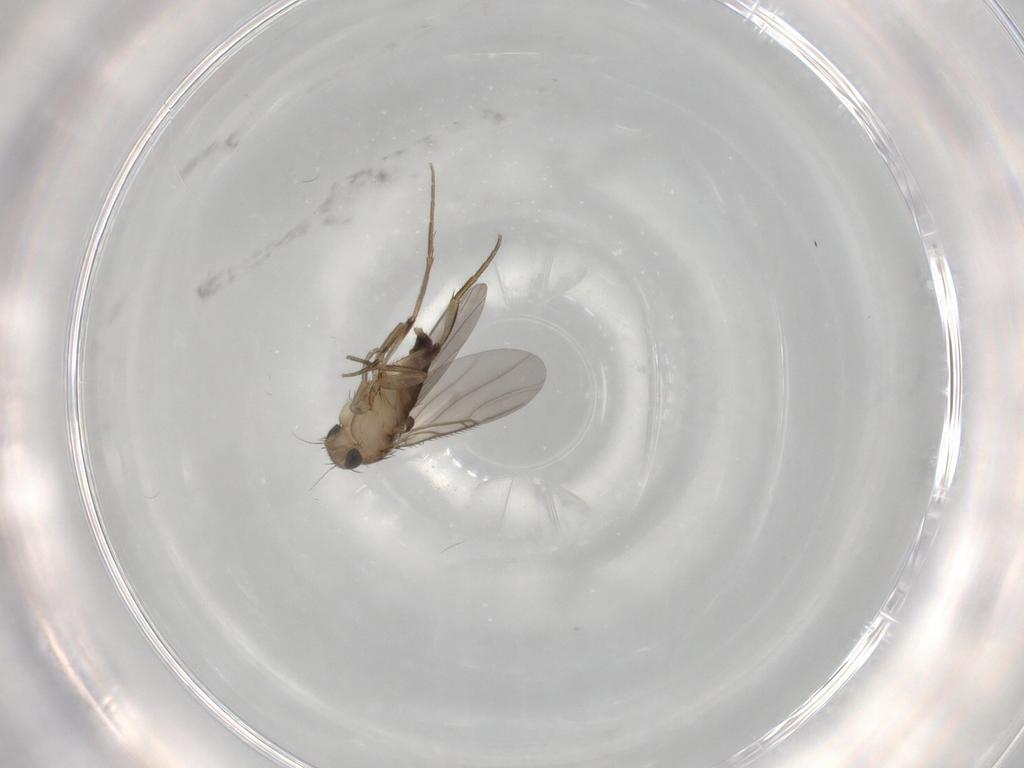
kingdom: Animalia
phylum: Arthropoda
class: Insecta
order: Diptera
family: Phoridae
